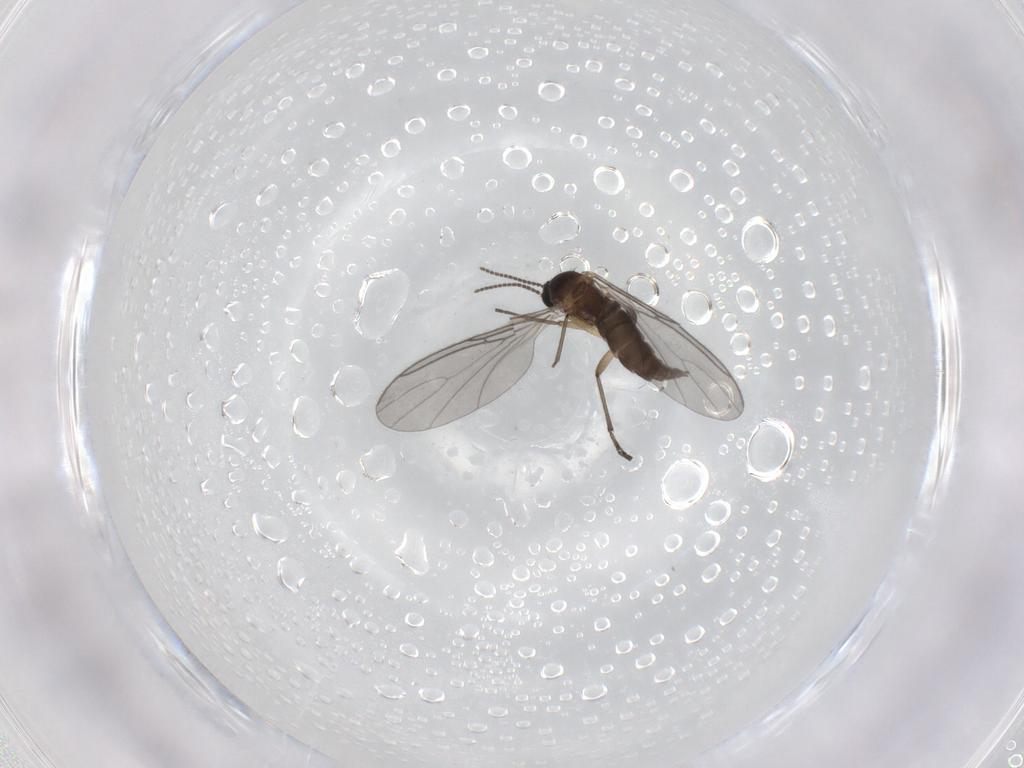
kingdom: Animalia
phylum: Arthropoda
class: Insecta
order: Diptera
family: Sciaridae
